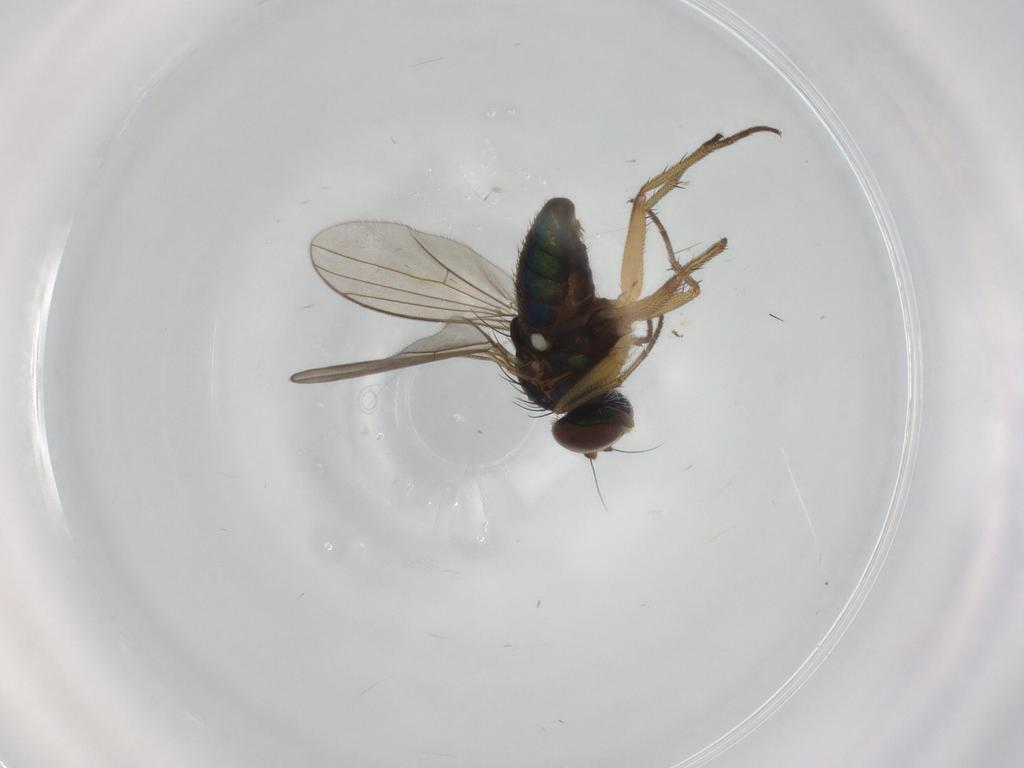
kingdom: Animalia
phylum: Arthropoda
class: Insecta
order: Diptera
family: Dolichopodidae
